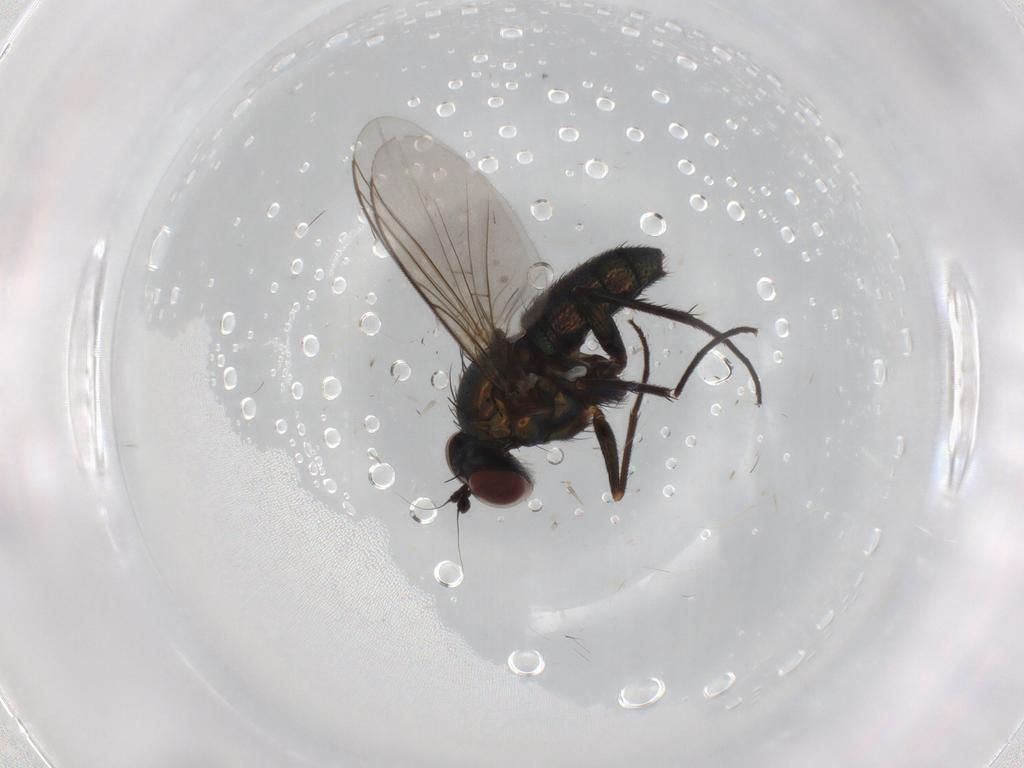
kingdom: Animalia
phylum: Arthropoda
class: Insecta
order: Diptera
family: Dolichopodidae
